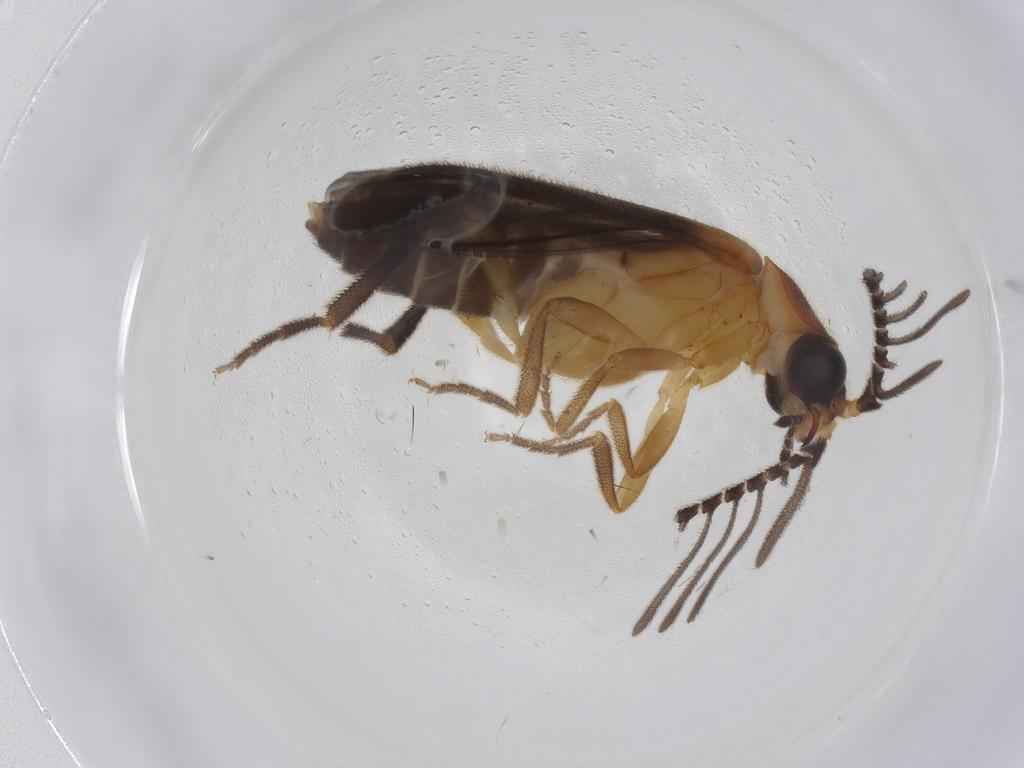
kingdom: Animalia
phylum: Arthropoda
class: Insecta
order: Coleoptera
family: Lampyridae
